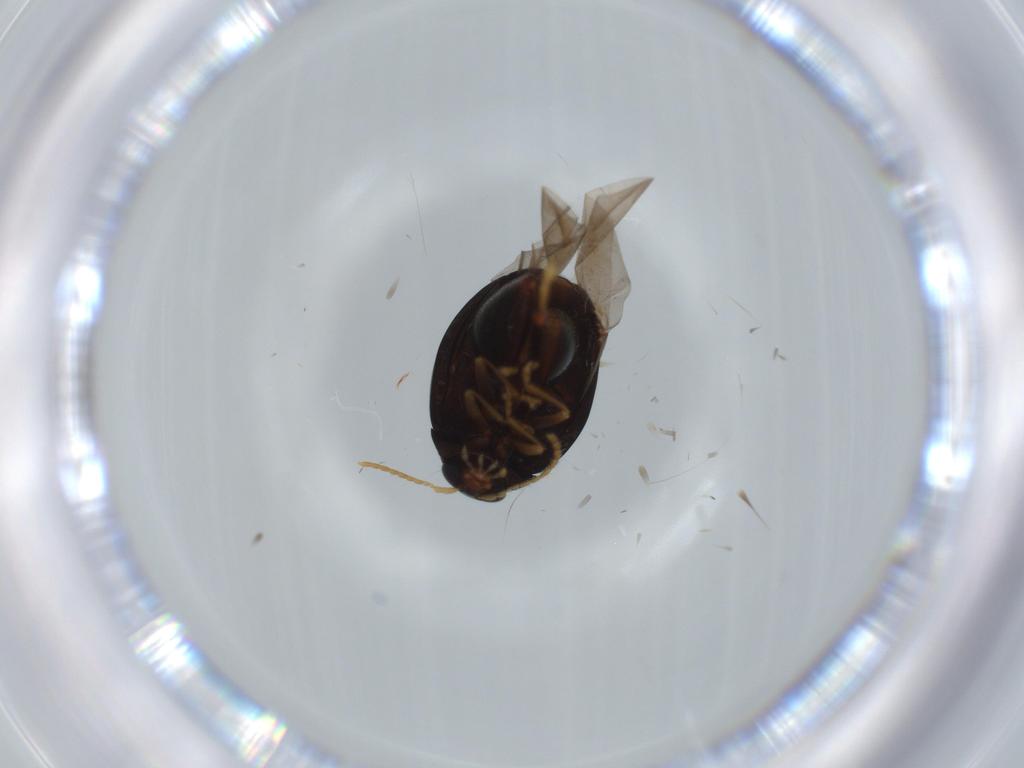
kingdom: Animalia
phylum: Arthropoda
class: Insecta
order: Coleoptera
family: Chrysomelidae
